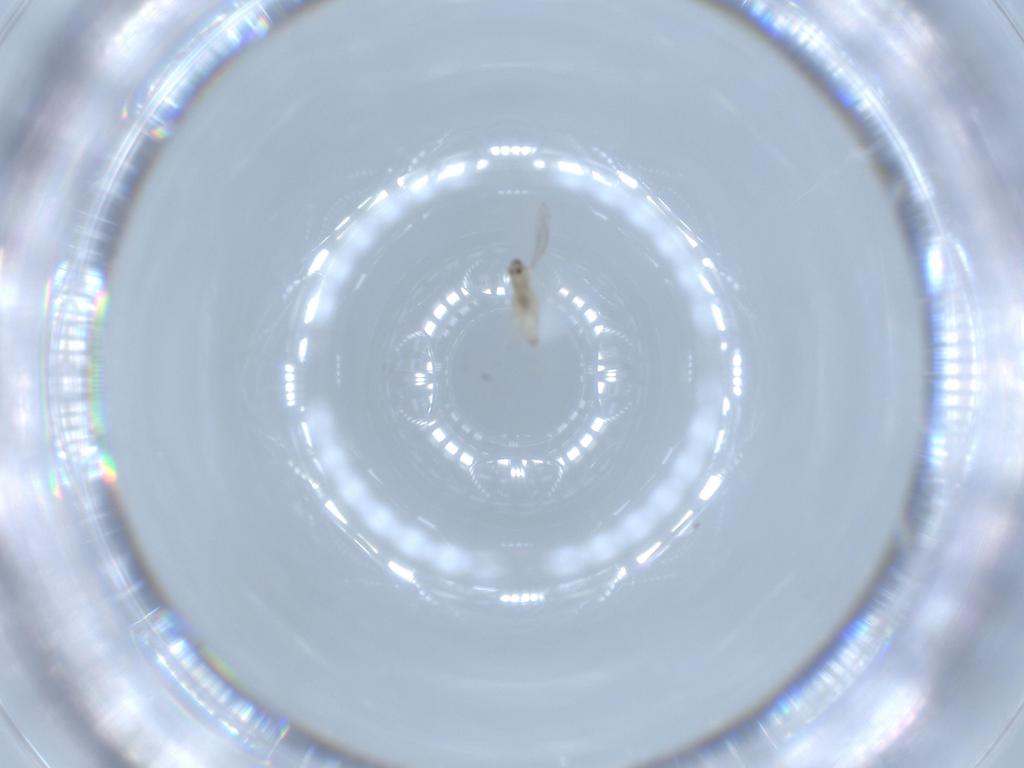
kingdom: Animalia
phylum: Arthropoda
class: Insecta
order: Diptera
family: Cecidomyiidae
